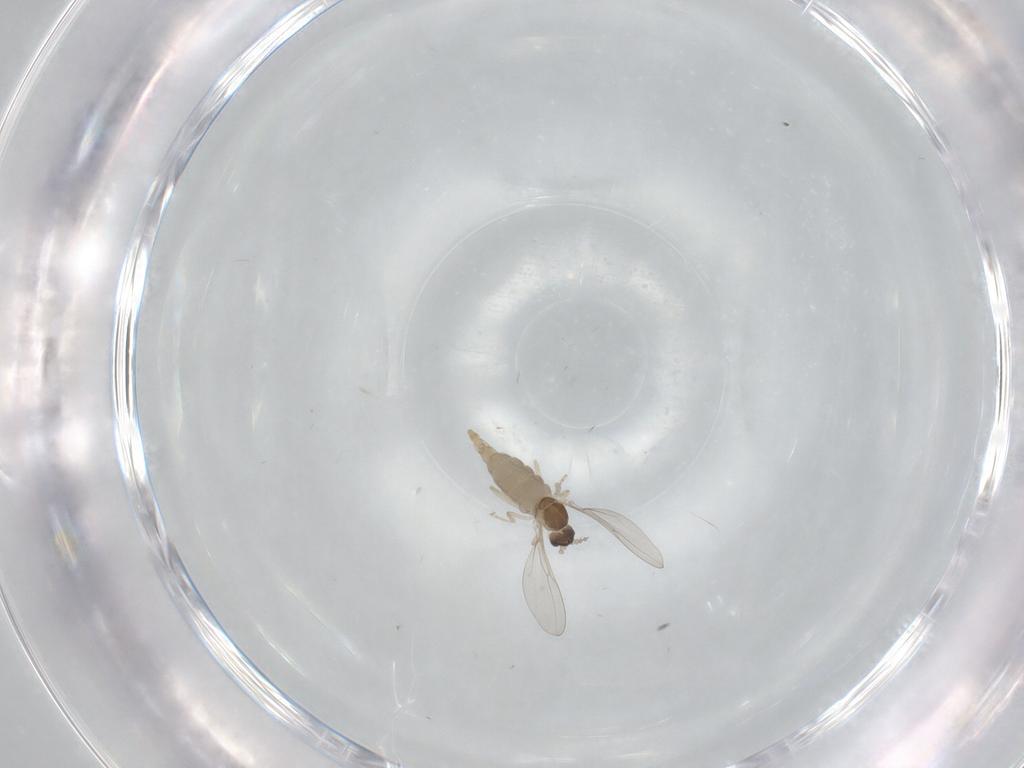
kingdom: Animalia
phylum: Arthropoda
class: Insecta
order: Diptera
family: Cecidomyiidae
